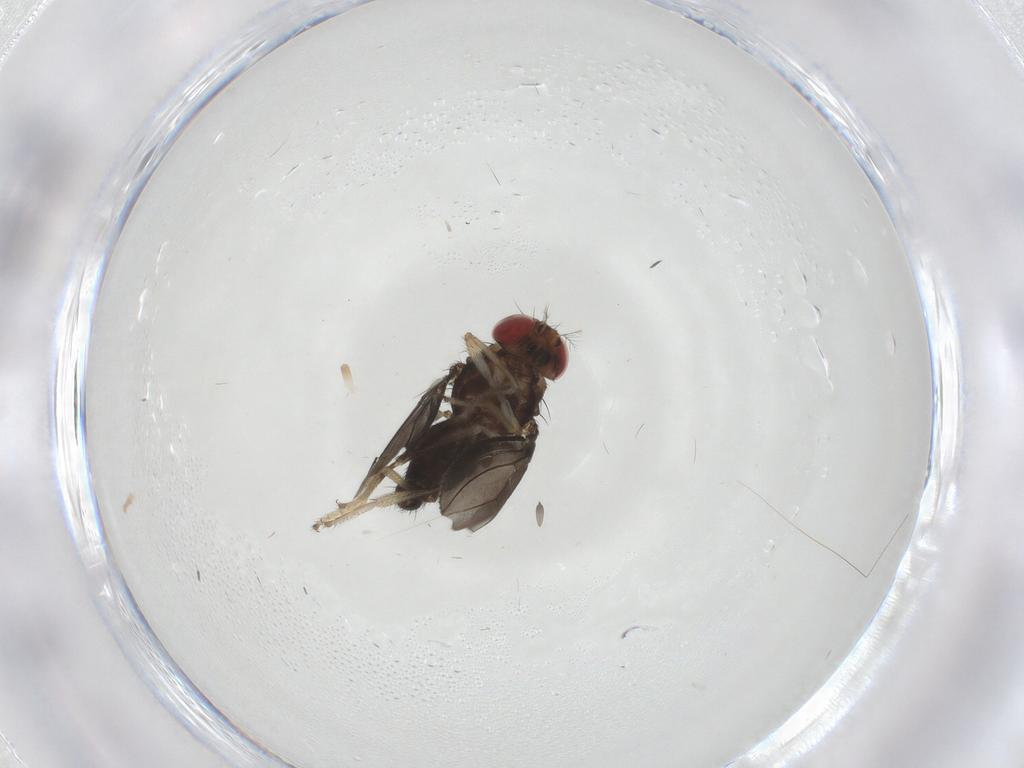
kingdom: Animalia
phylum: Arthropoda
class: Insecta
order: Diptera
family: Ceratopogonidae
